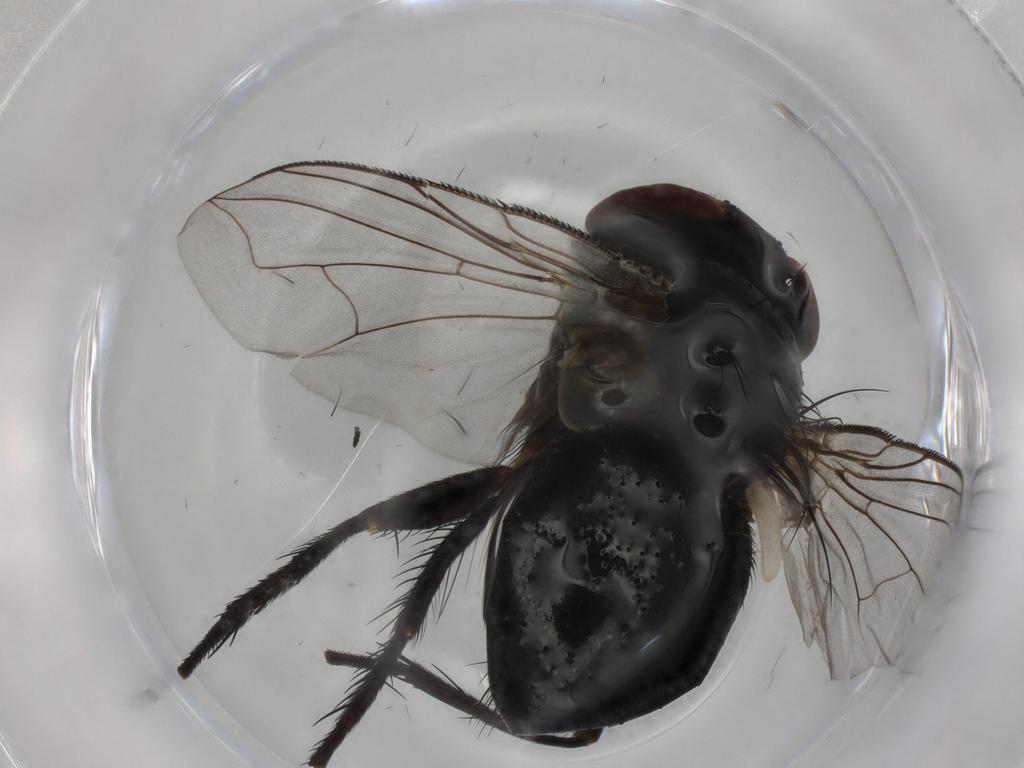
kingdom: Animalia
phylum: Arthropoda
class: Insecta
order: Diptera
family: Tachinidae
